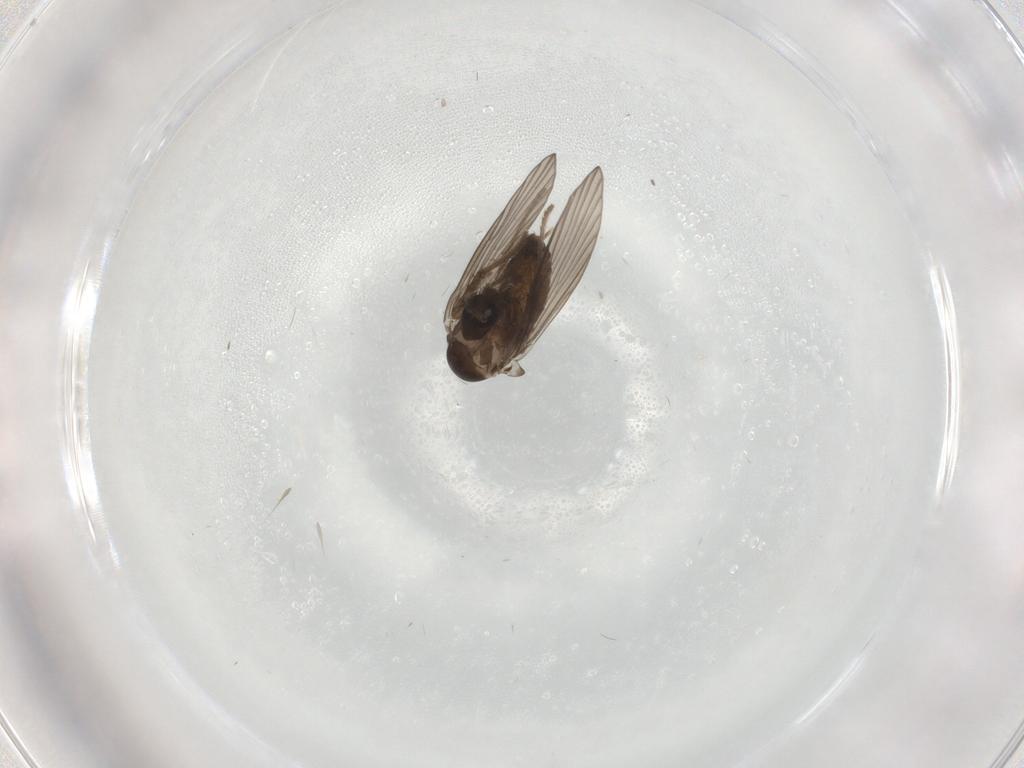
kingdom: Animalia
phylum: Arthropoda
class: Insecta
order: Diptera
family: Psychodidae
